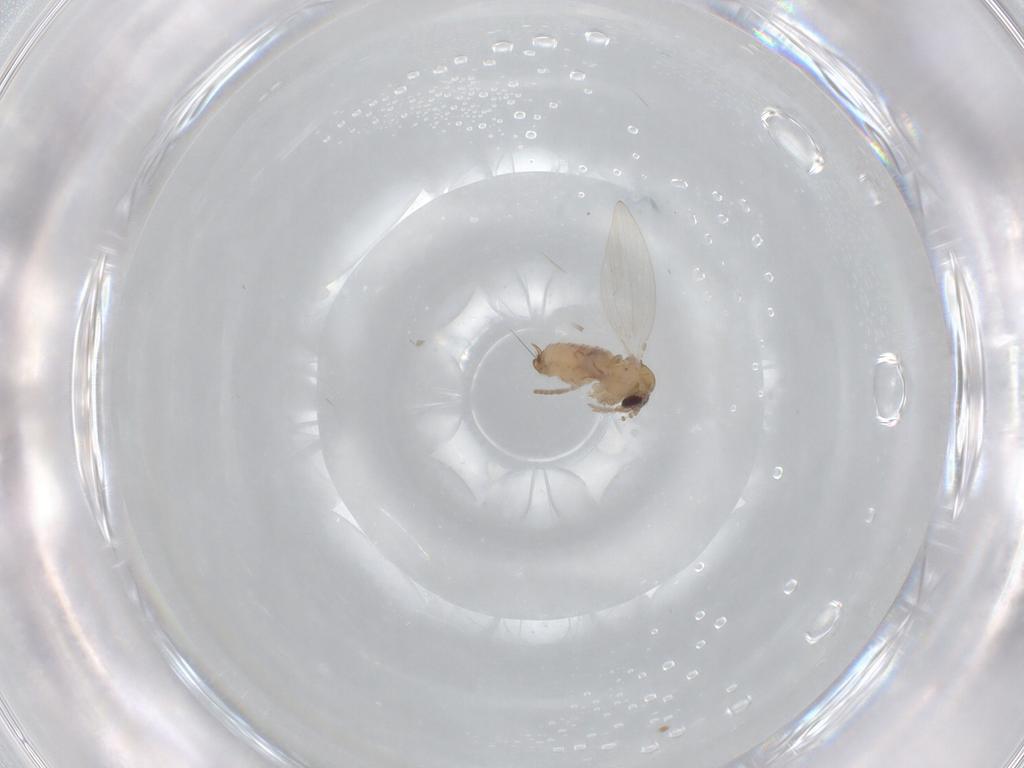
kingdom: Animalia
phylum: Arthropoda
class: Insecta
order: Diptera
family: Psychodidae
